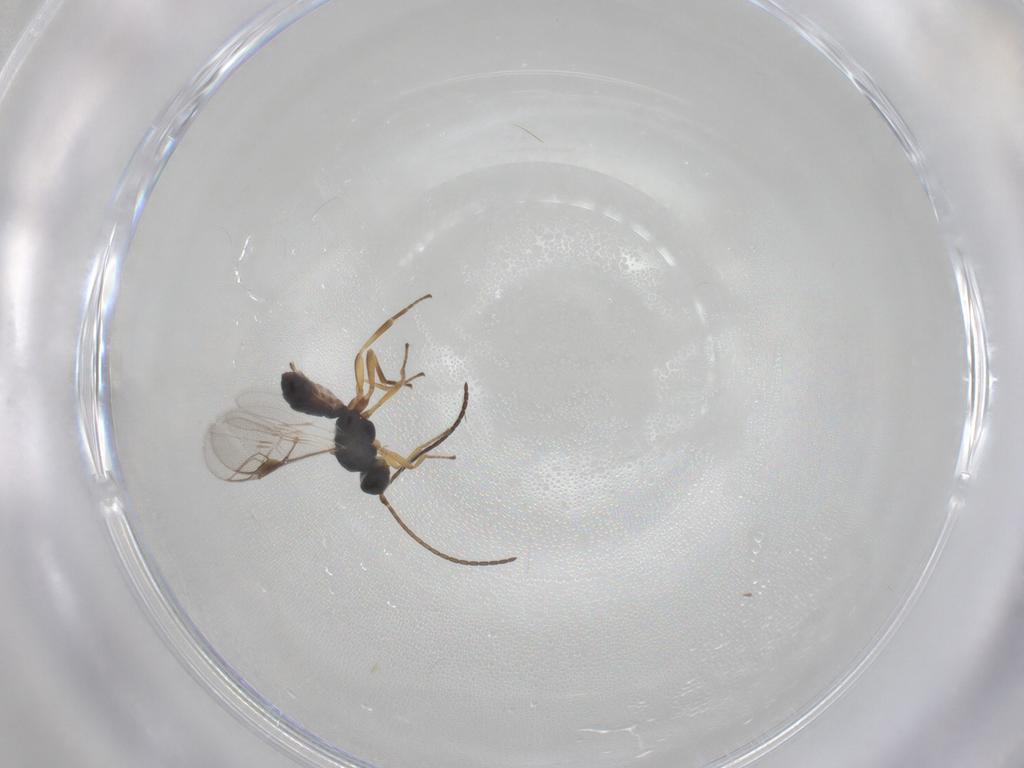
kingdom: Animalia
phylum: Arthropoda
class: Insecta
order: Hymenoptera
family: Braconidae
